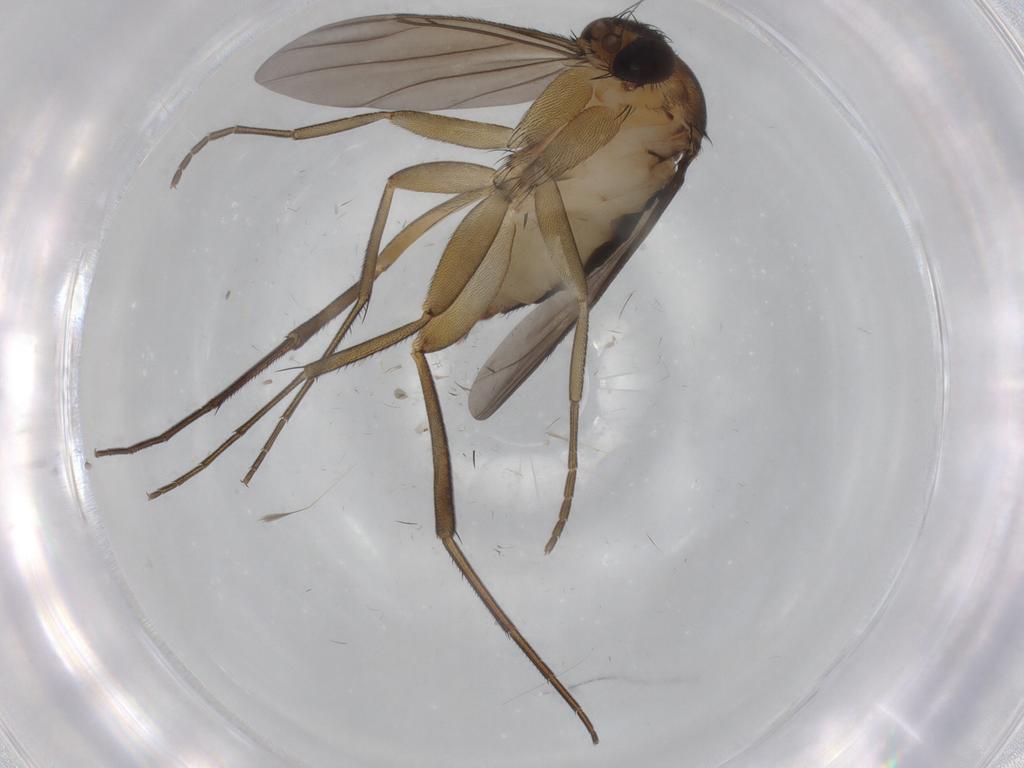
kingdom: Animalia
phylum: Arthropoda
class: Insecta
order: Diptera
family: Phoridae
